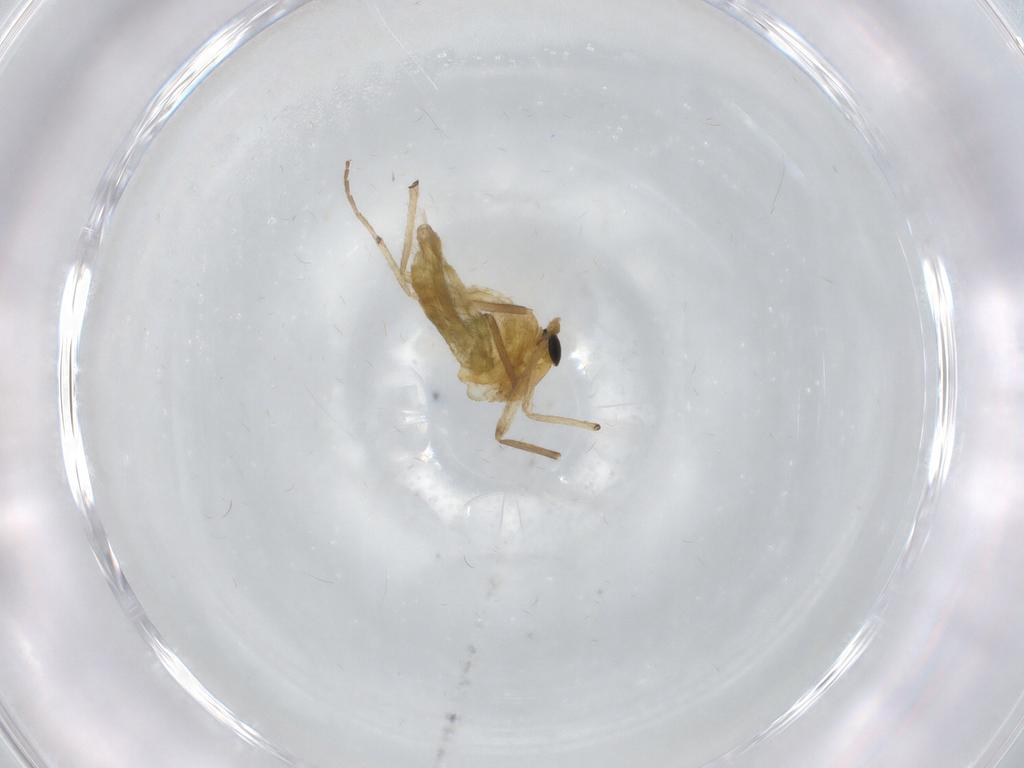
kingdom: Animalia
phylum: Arthropoda
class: Insecta
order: Diptera
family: Chironomidae
